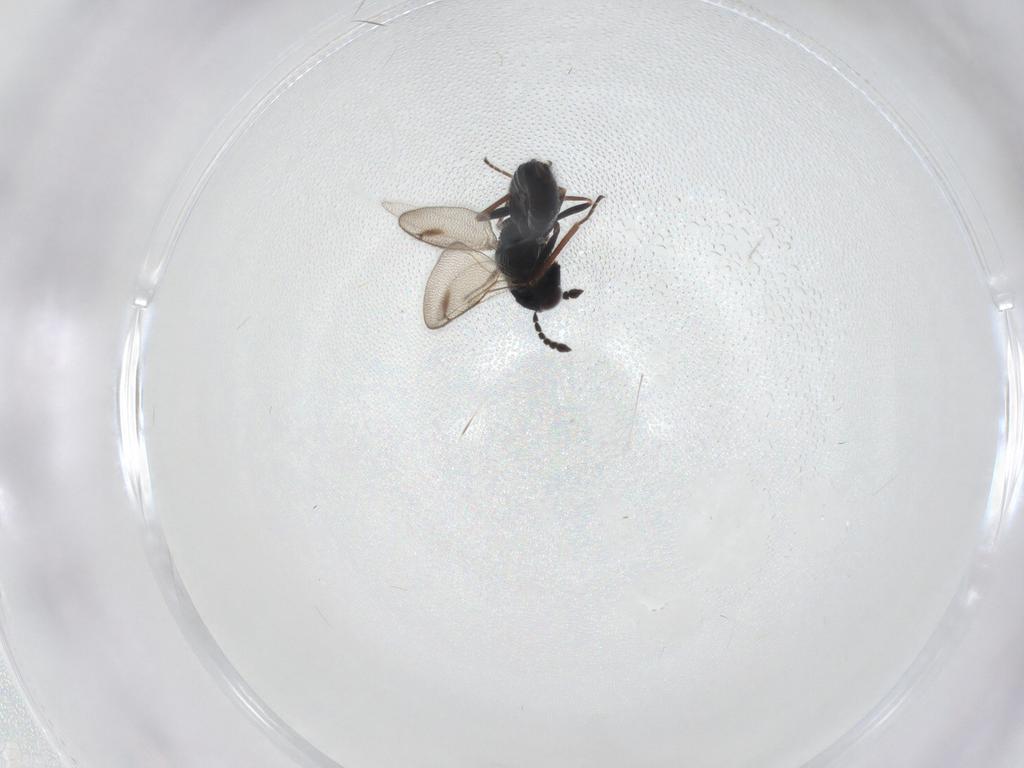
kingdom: Animalia
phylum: Arthropoda
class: Insecta
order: Hymenoptera
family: Eulophidae
